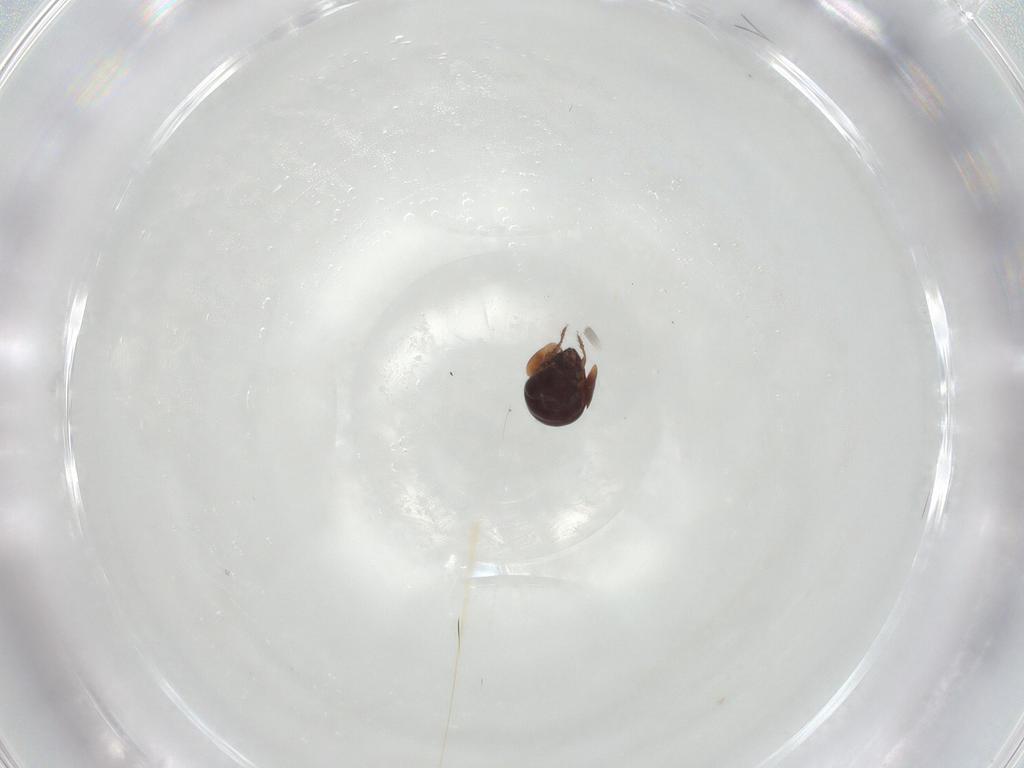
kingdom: Animalia
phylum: Arthropoda
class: Arachnida
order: Sarcoptiformes
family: Galumnidae
